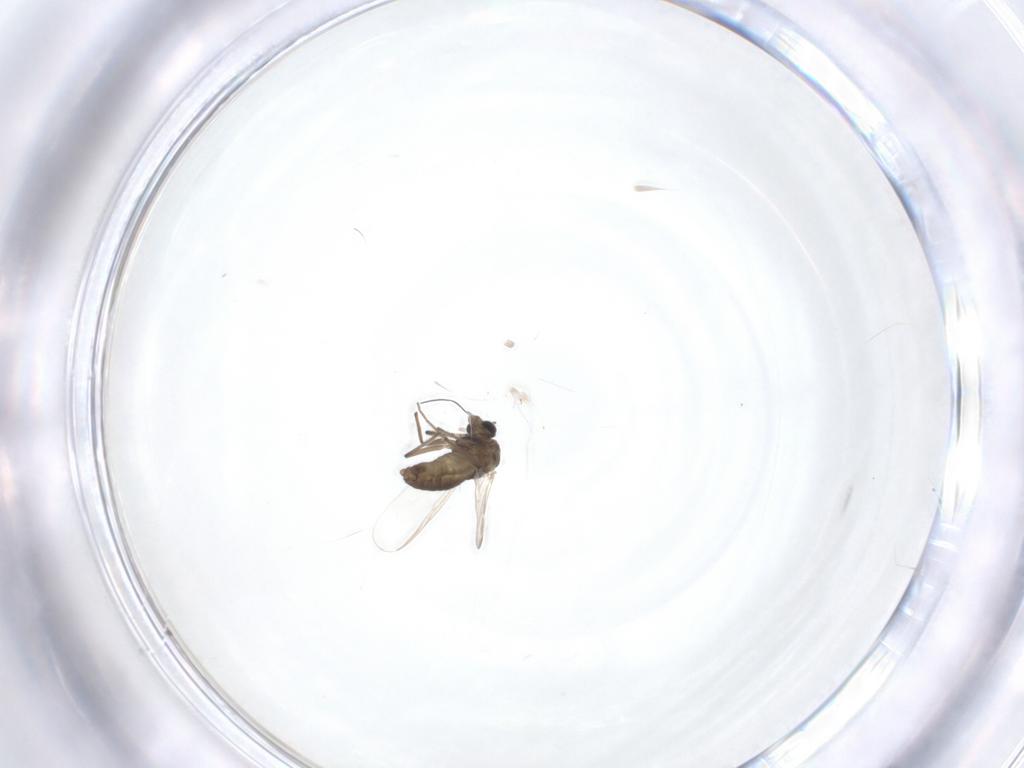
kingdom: Animalia
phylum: Arthropoda
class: Insecta
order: Diptera
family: Chironomidae
